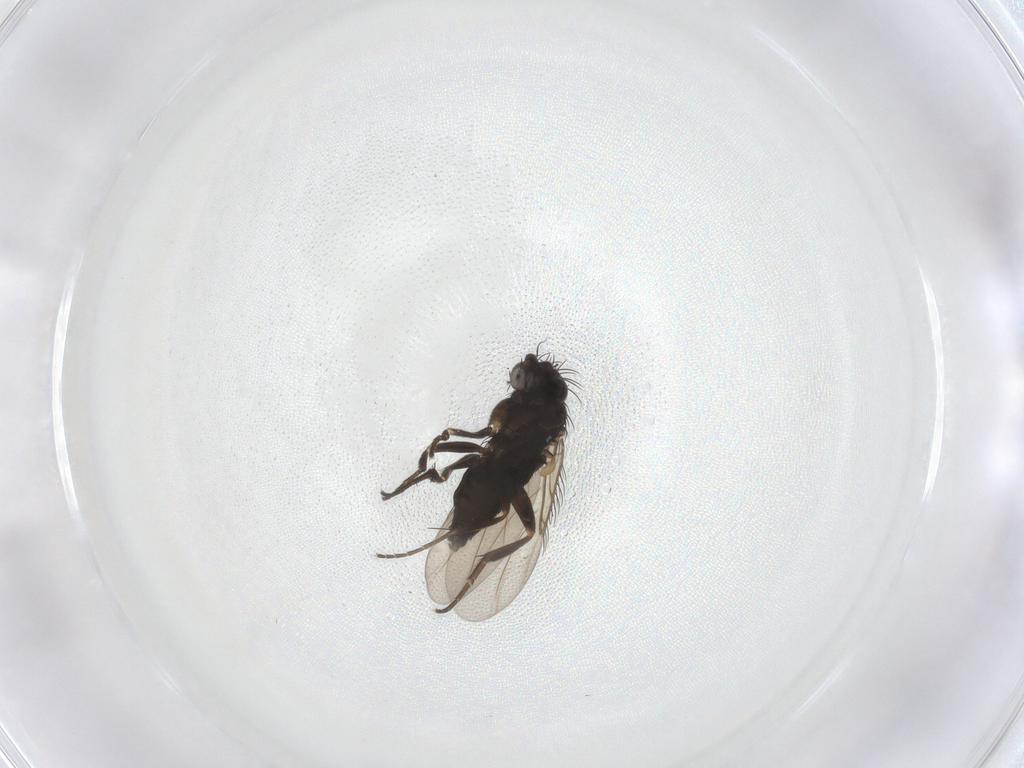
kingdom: Animalia
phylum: Arthropoda
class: Insecta
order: Diptera
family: Phoridae
